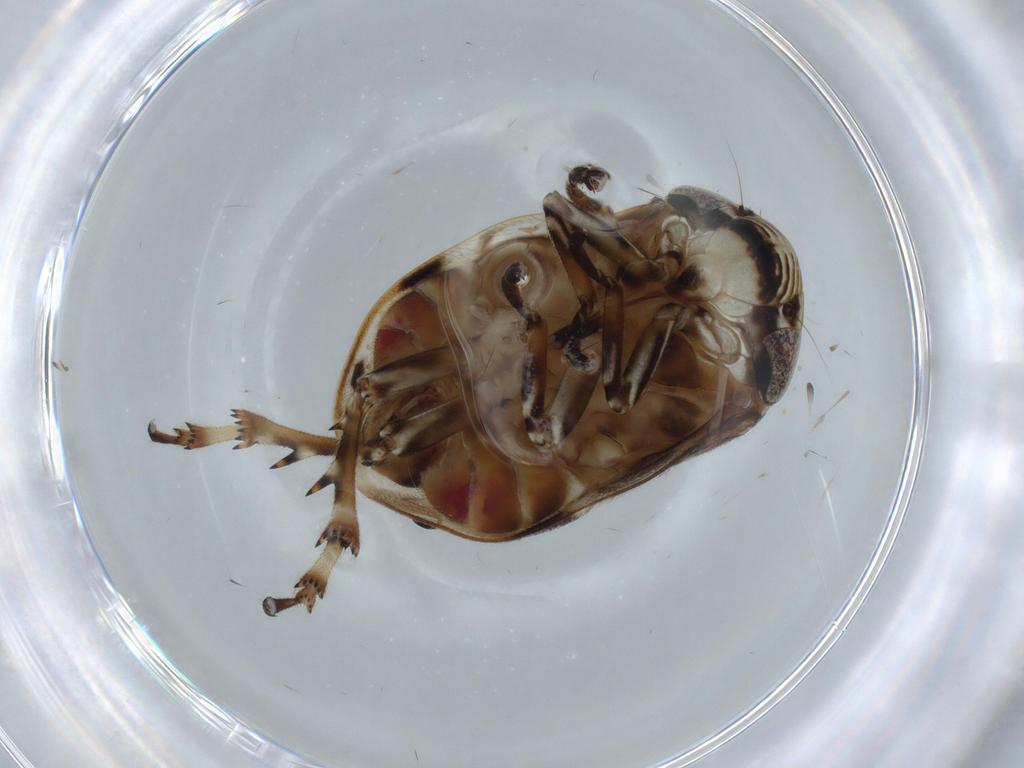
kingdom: Animalia
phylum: Arthropoda
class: Insecta
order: Hemiptera
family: Clastopteridae
